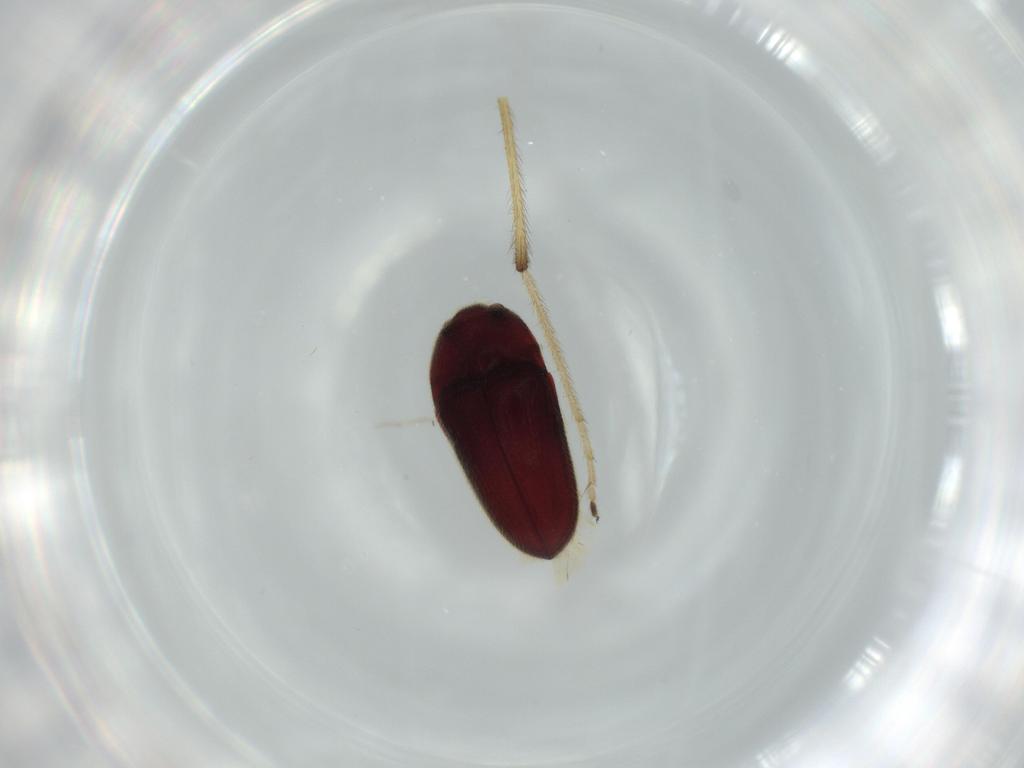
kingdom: Animalia
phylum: Arthropoda
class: Insecta
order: Coleoptera
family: Throscidae
